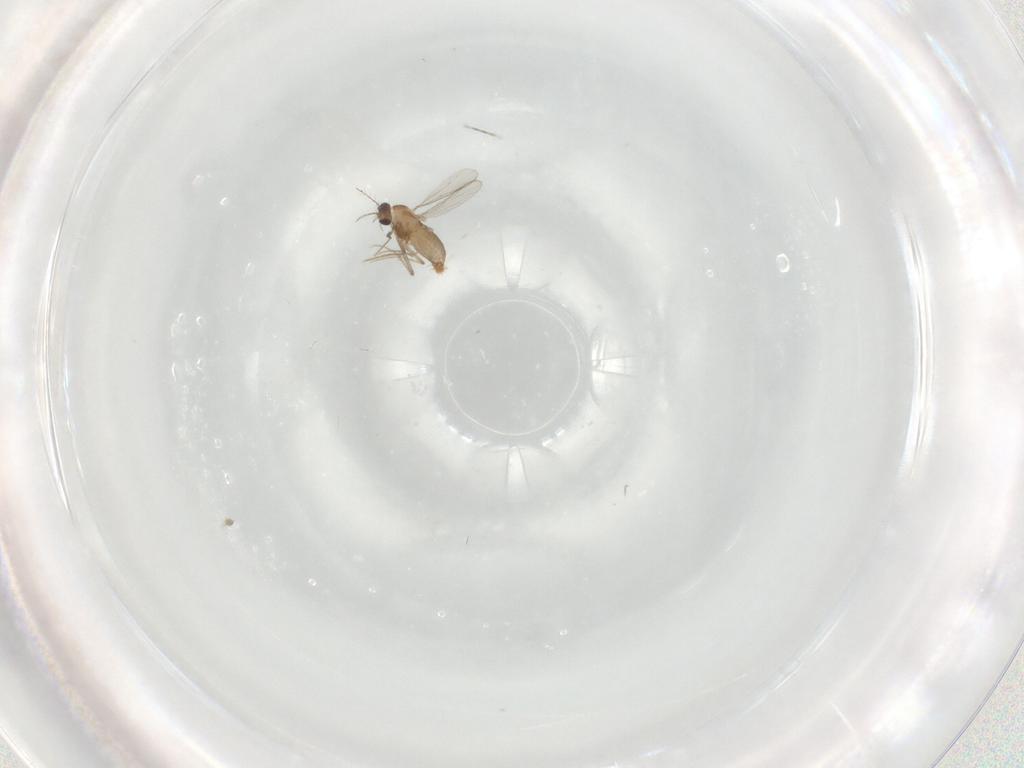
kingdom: Animalia
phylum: Arthropoda
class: Insecta
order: Diptera
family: Chironomidae
